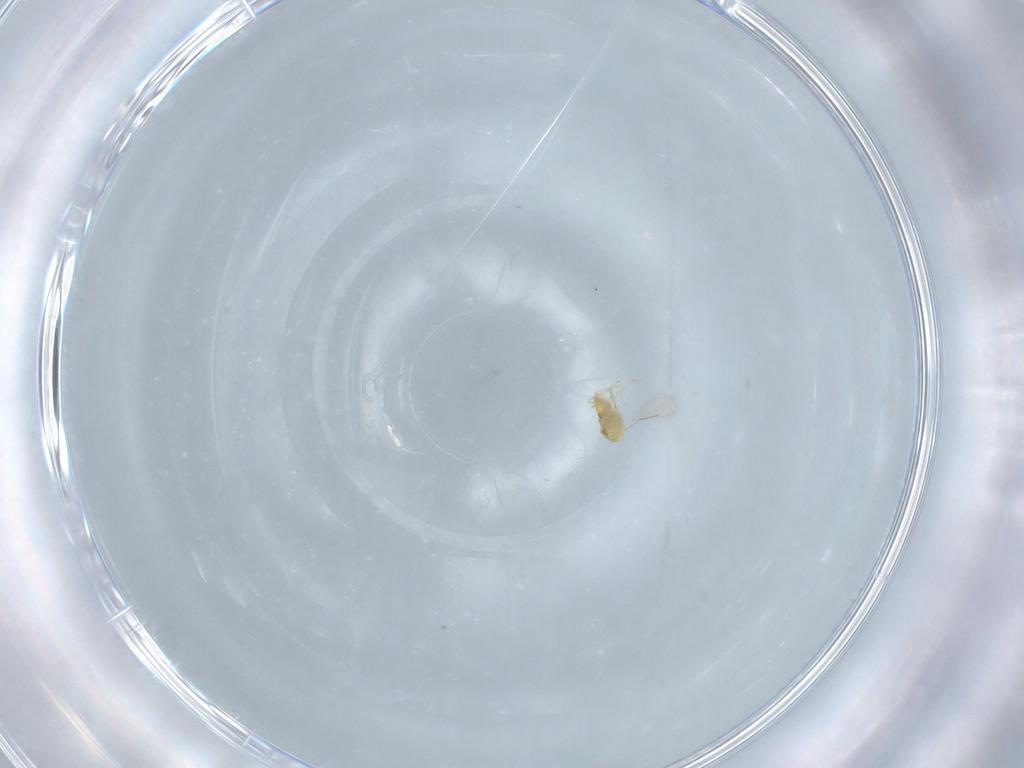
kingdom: Animalia
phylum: Arthropoda
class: Insecta
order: Hymenoptera
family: Aphelinidae
